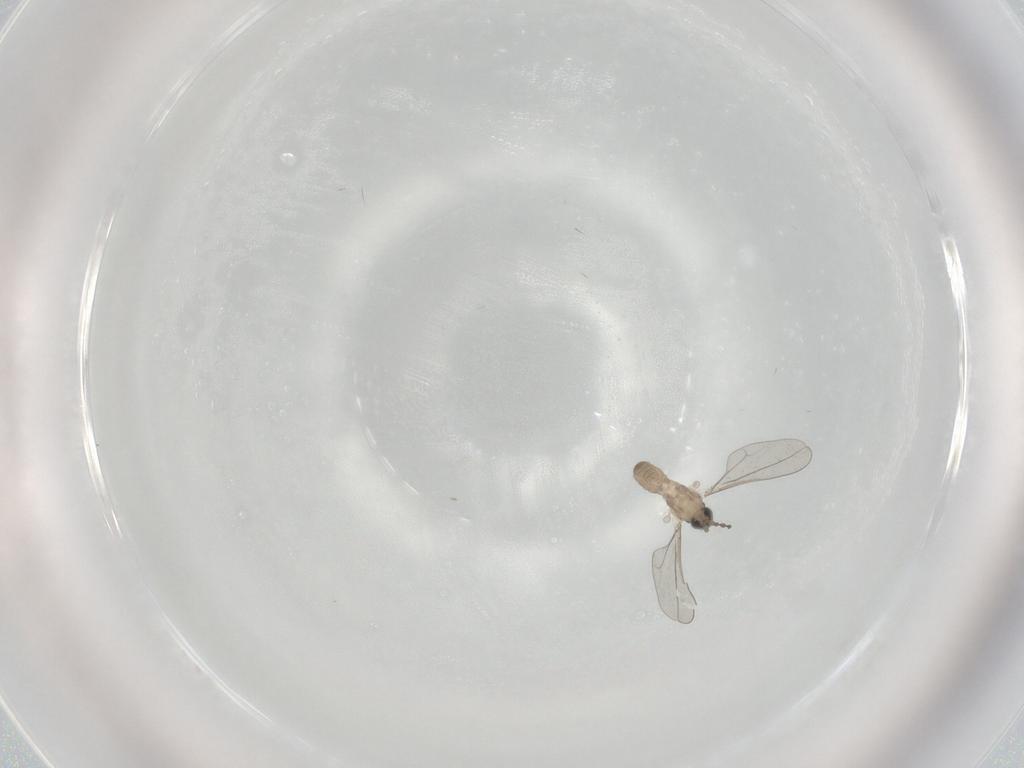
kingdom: Animalia
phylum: Arthropoda
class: Insecta
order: Diptera
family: Cecidomyiidae
